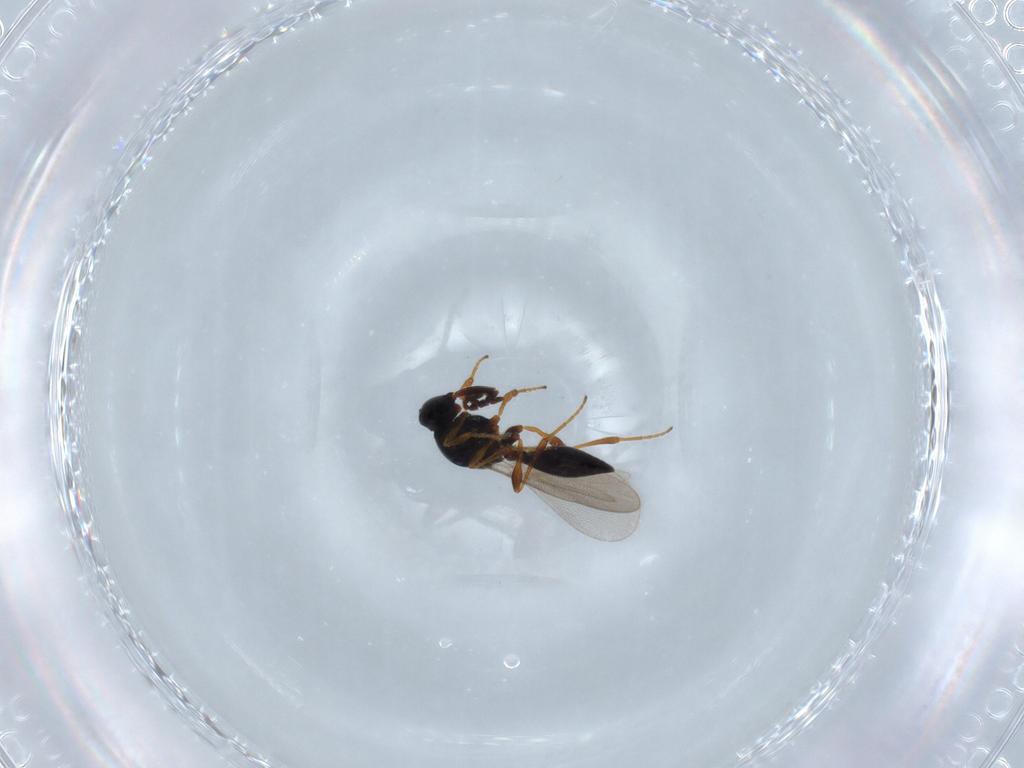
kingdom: Animalia
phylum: Arthropoda
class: Insecta
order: Hymenoptera
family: Platygastridae
